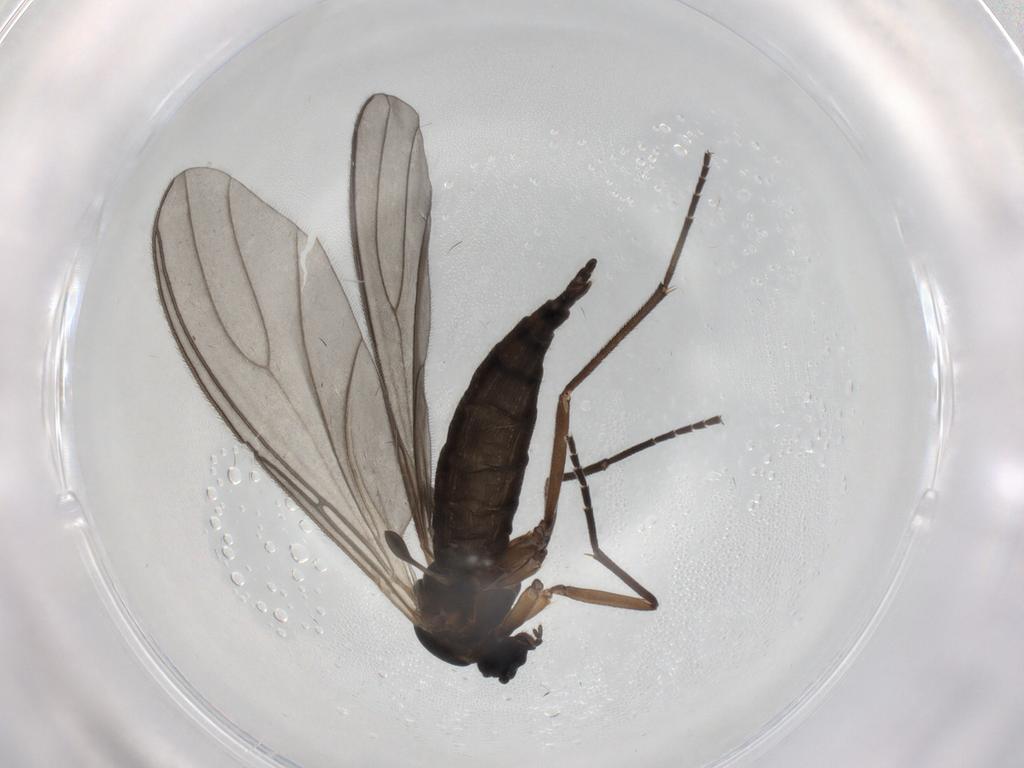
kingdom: Animalia
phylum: Arthropoda
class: Insecta
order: Diptera
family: Sciaridae
